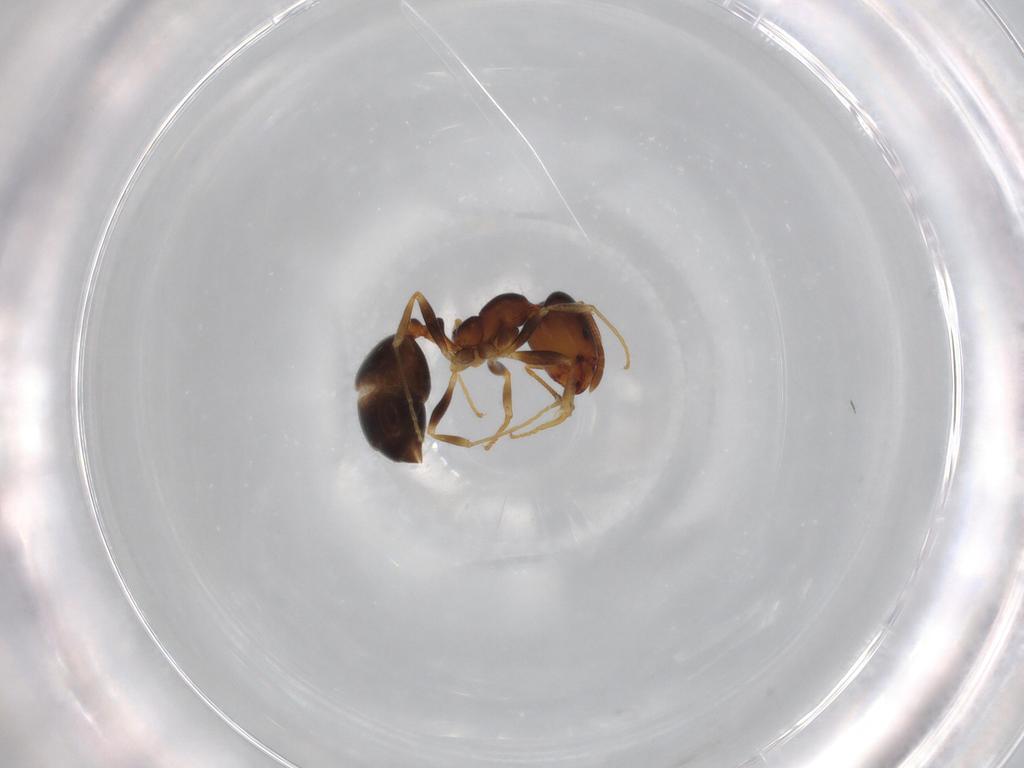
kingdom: Animalia
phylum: Arthropoda
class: Insecta
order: Hymenoptera
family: Formicidae
